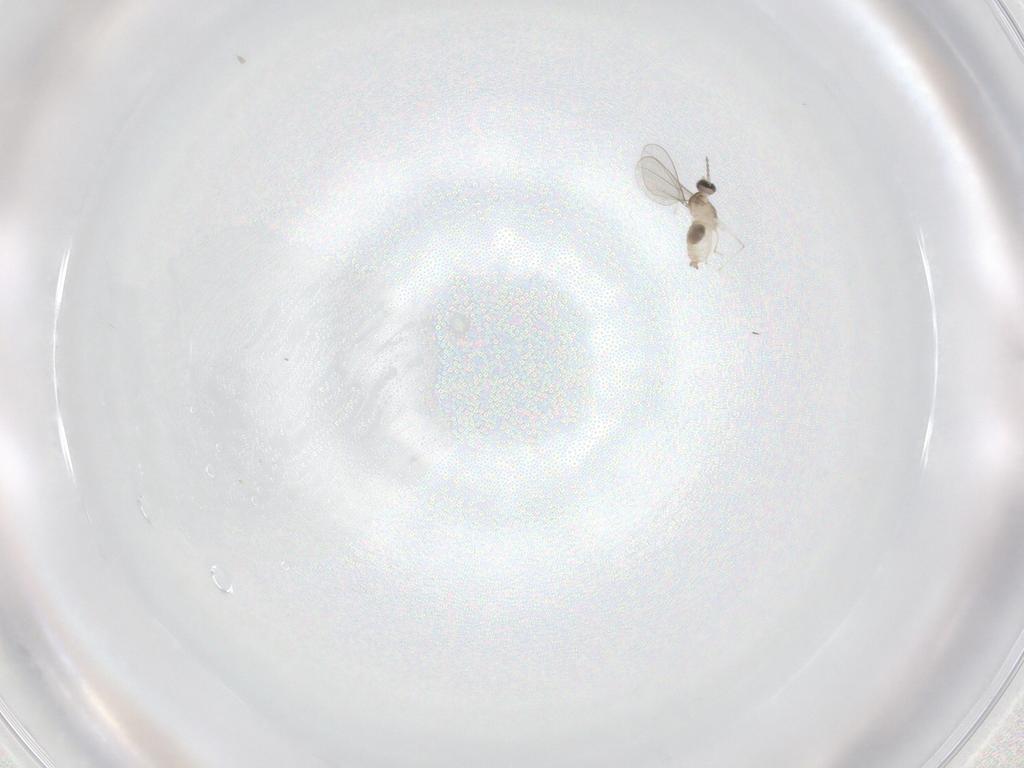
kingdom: Animalia
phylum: Arthropoda
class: Insecta
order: Diptera
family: Cecidomyiidae
